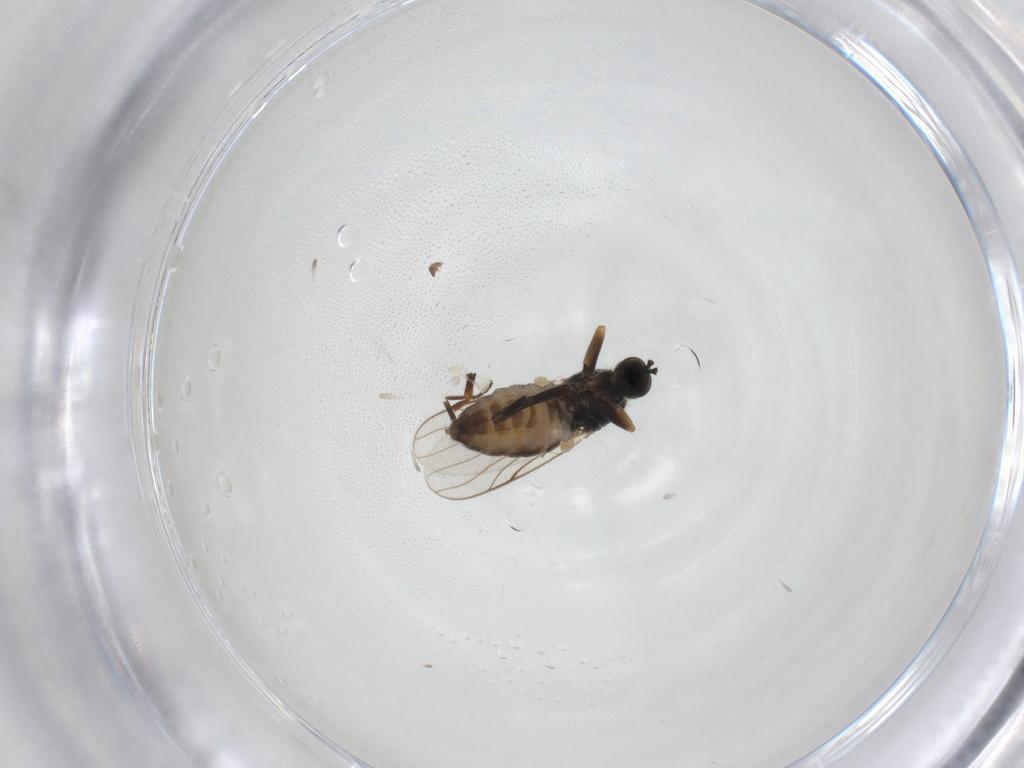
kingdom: Animalia
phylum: Arthropoda
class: Insecta
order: Diptera
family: Hybotidae
